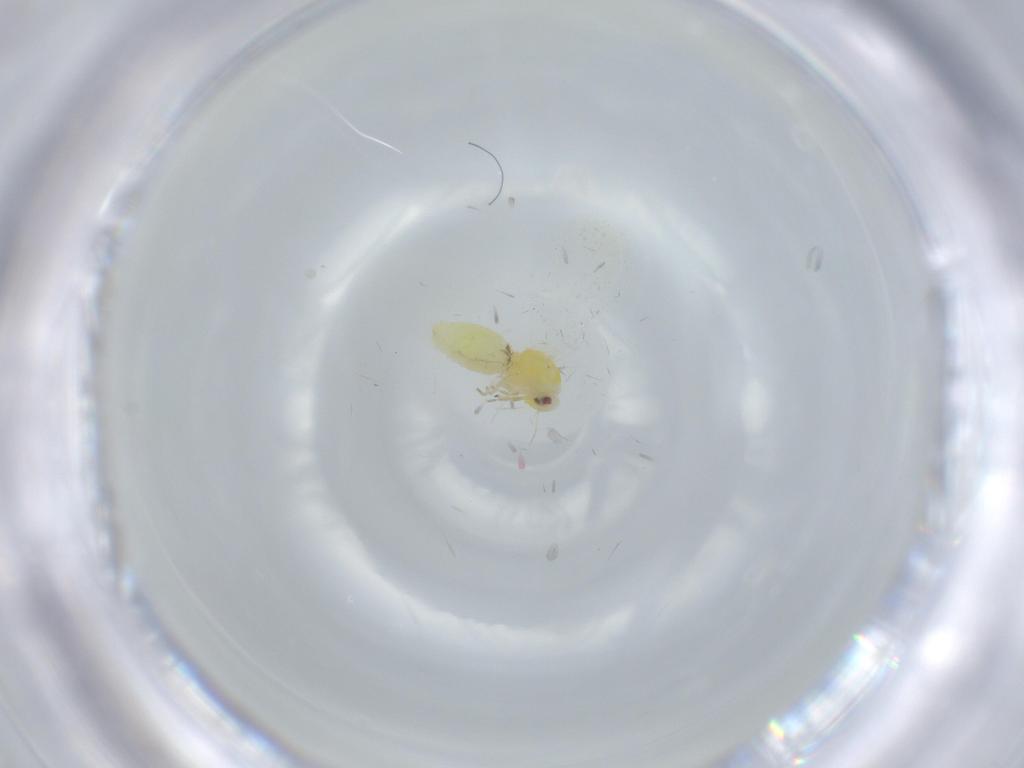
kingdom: Animalia
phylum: Arthropoda
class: Insecta
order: Hemiptera
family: Aleyrodidae
